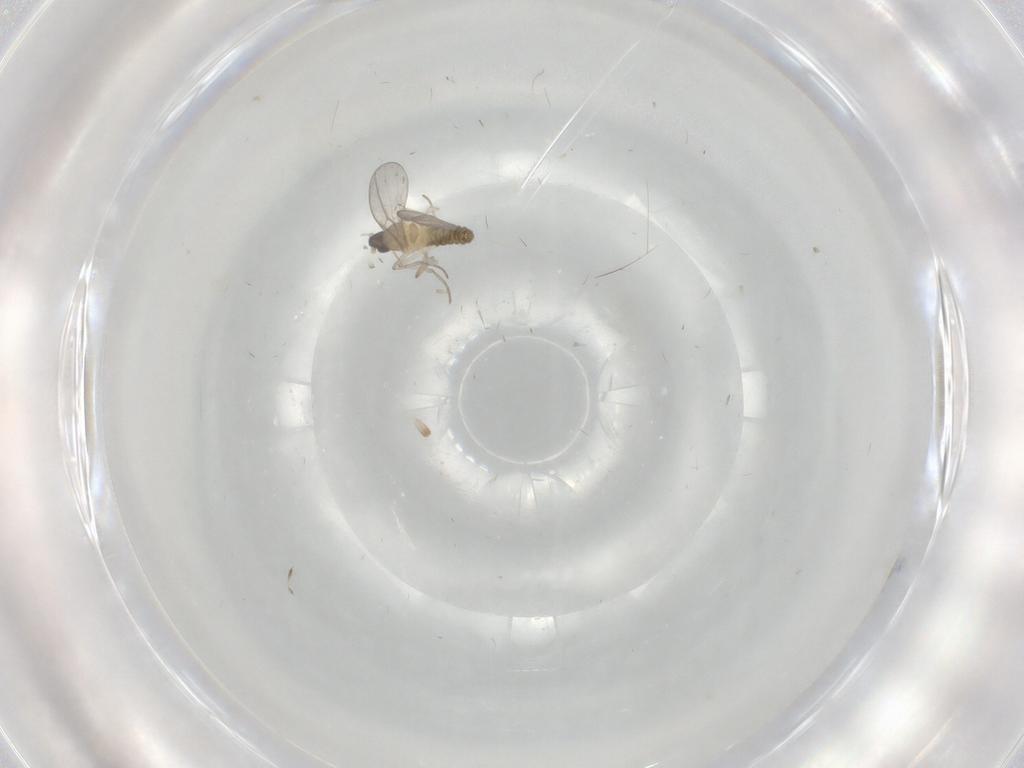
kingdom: Animalia
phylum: Arthropoda
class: Insecta
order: Diptera
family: Cecidomyiidae
